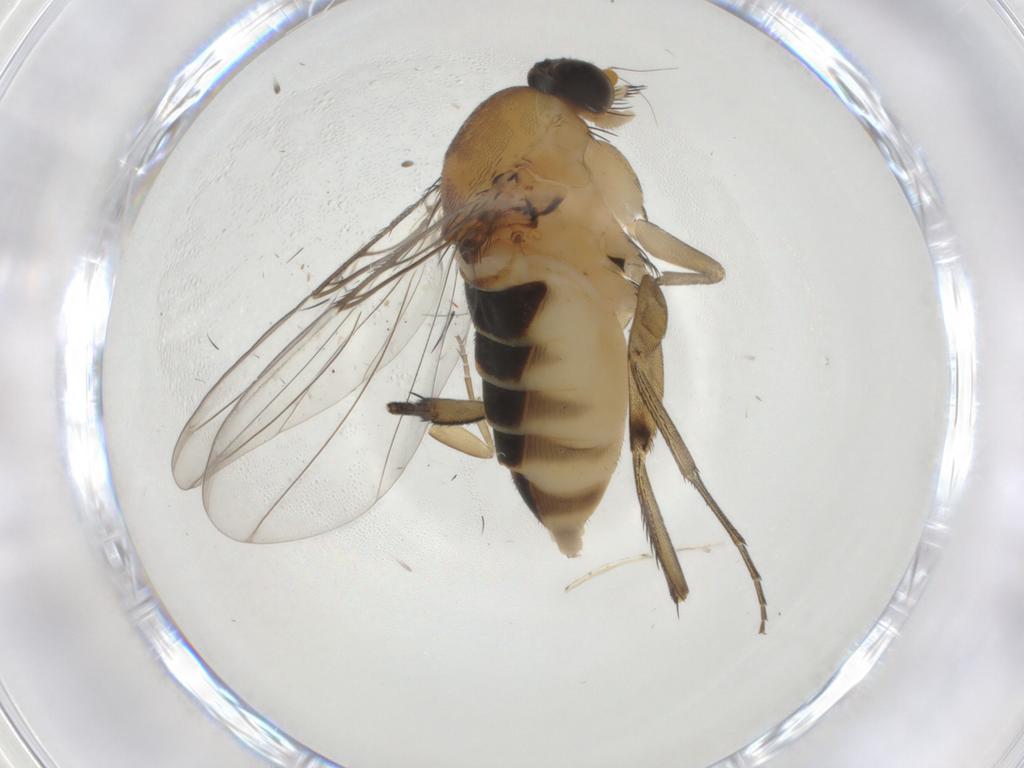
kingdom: Animalia
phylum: Arthropoda
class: Insecta
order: Diptera
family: Phoridae
